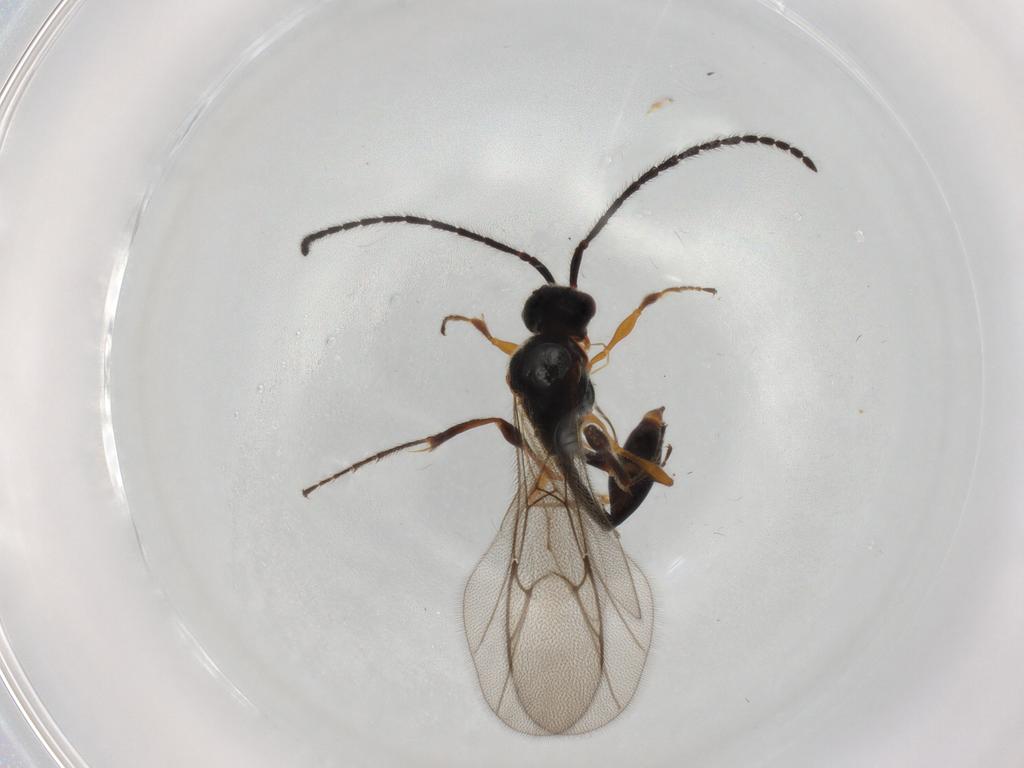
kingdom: Animalia
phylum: Arthropoda
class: Insecta
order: Hymenoptera
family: Diapriidae
